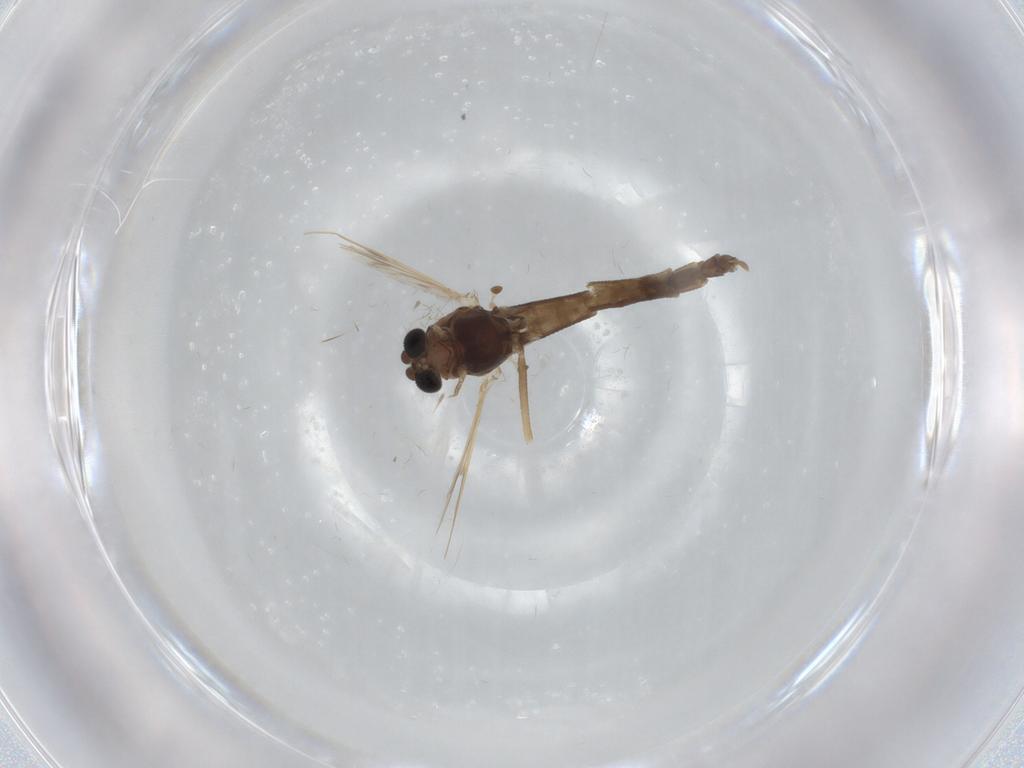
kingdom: Animalia
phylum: Arthropoda
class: Insecta
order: Diptera
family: Chironomidae
